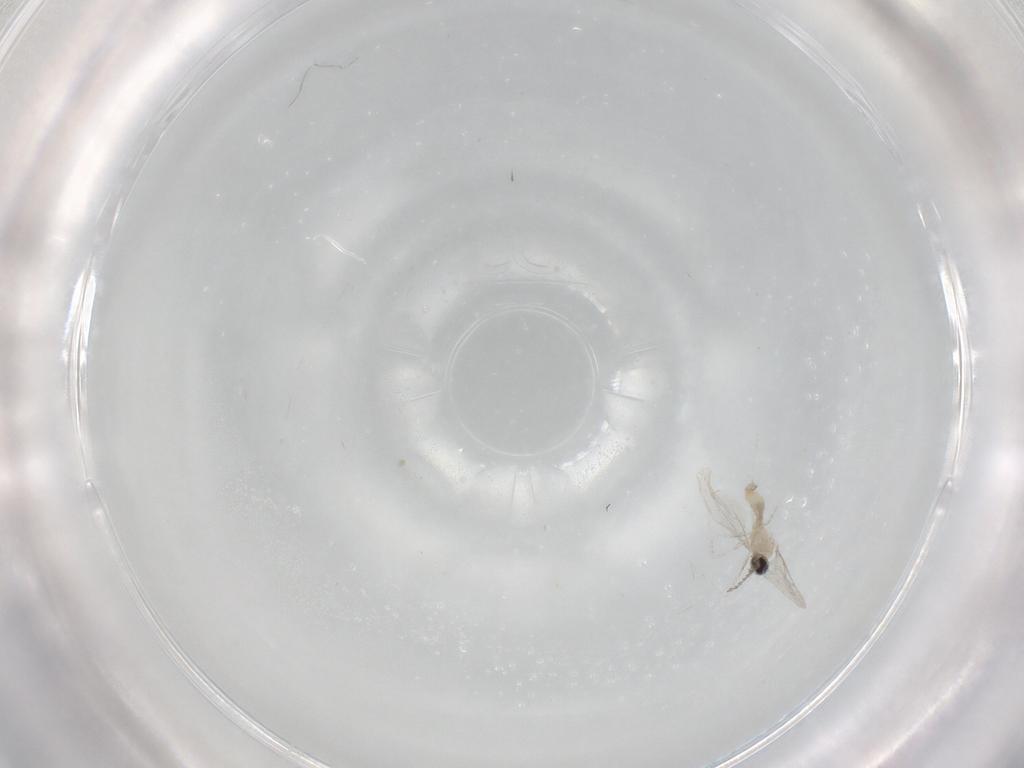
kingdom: Animalia
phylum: Arthropoda
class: Insecta
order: Diptera
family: Cecidomyiidae
